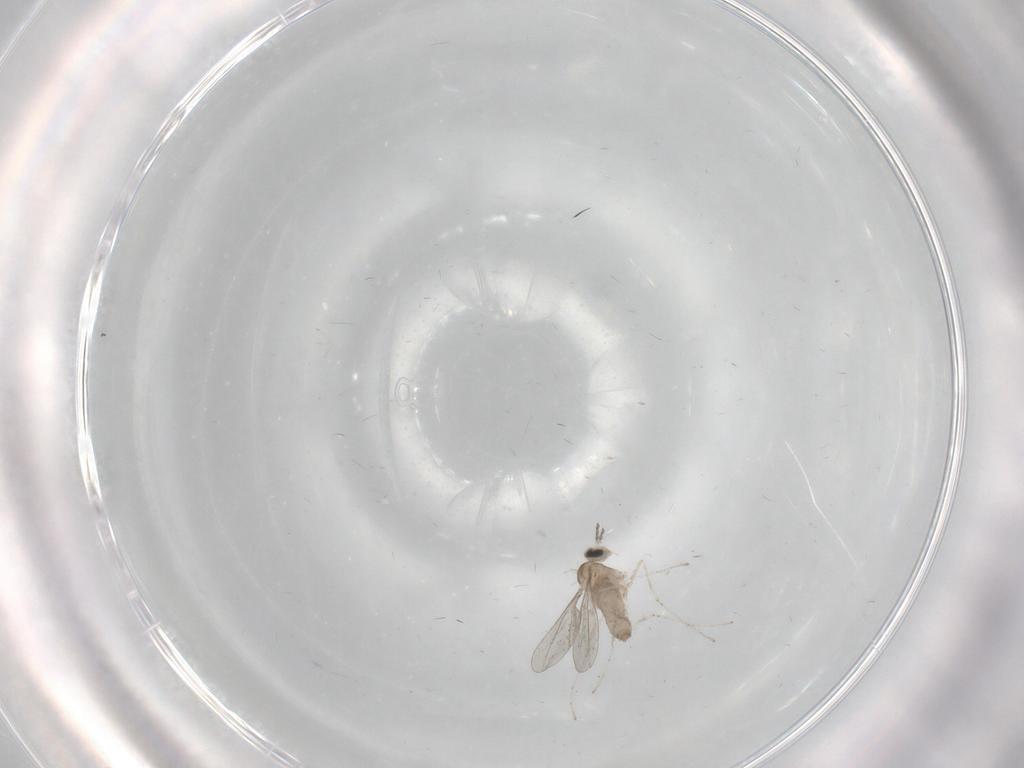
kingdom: Animalia
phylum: Arthropoda
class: Insecta
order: Diptera
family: Cecidomyiidae
